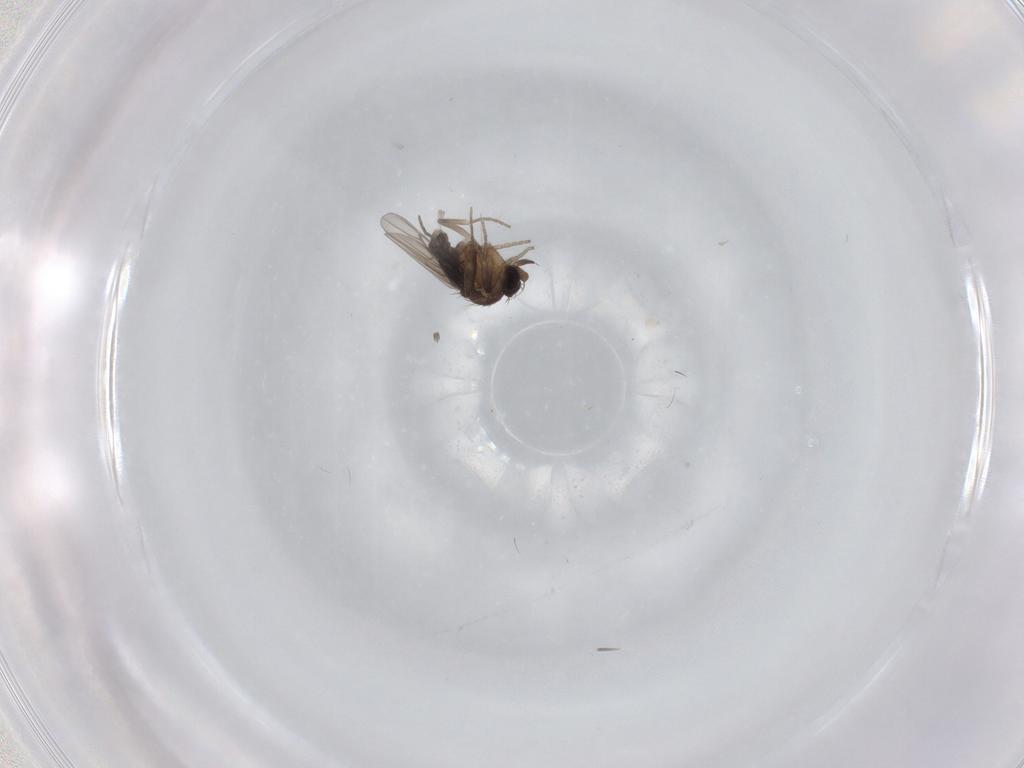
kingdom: Animalia
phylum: Arthropoda
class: Insecta
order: Diptera
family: Phoridae
